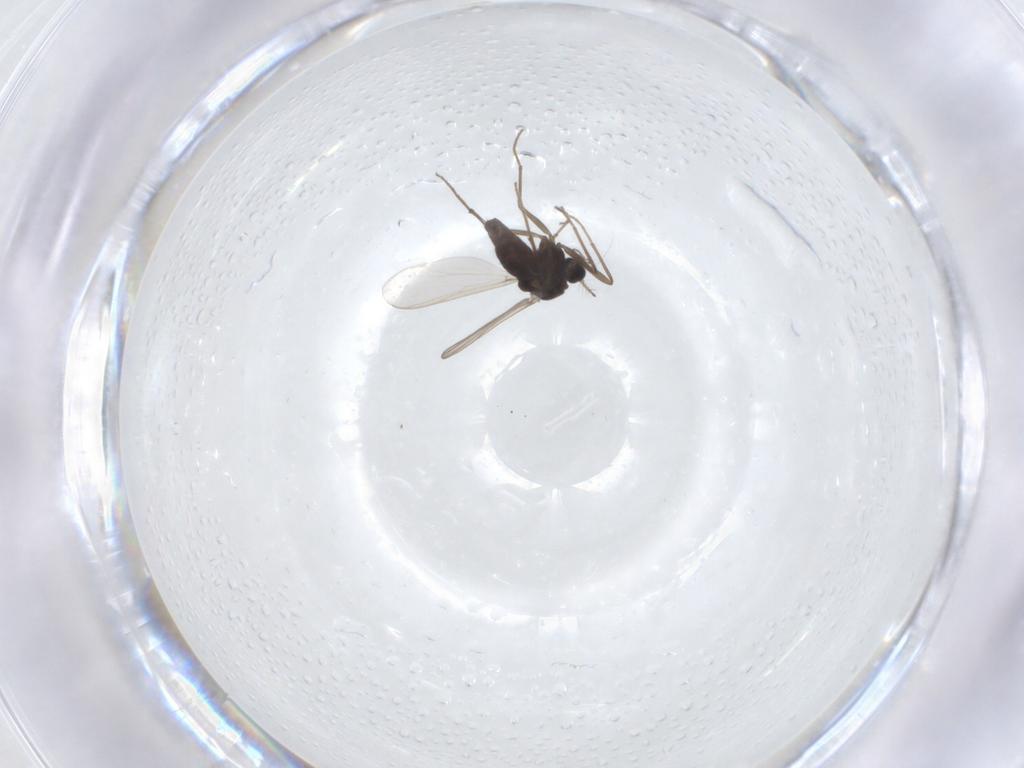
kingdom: Animalia
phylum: Arthropoda
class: Insecta
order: Diptera
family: Chironomidae
